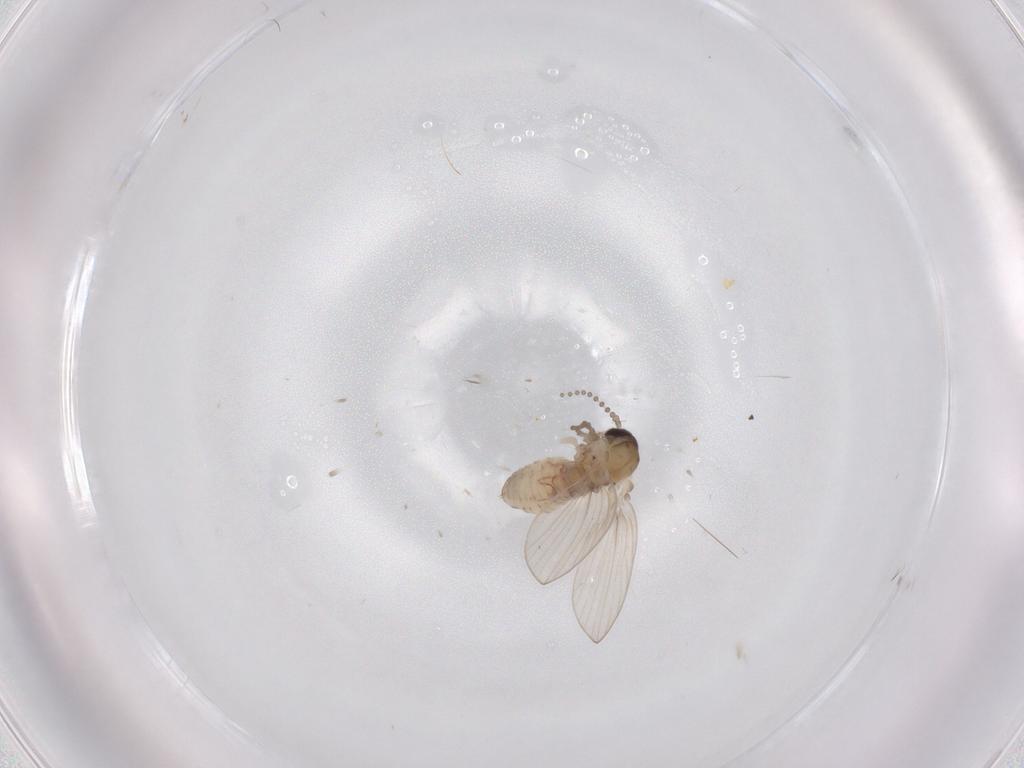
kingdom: Animalia
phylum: Arthropoda
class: Insecta
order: Diptera
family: Psychodidae
